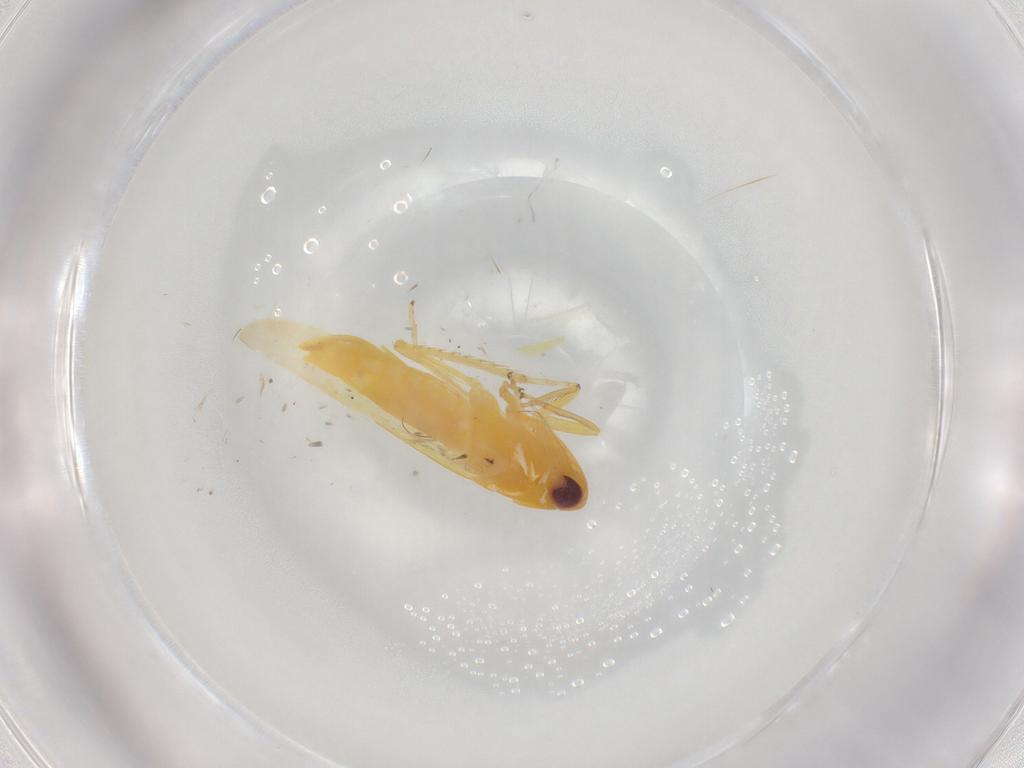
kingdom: Animalia
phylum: Arthropoda
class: Insecta
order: Hemiptera
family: Cicadellidae
